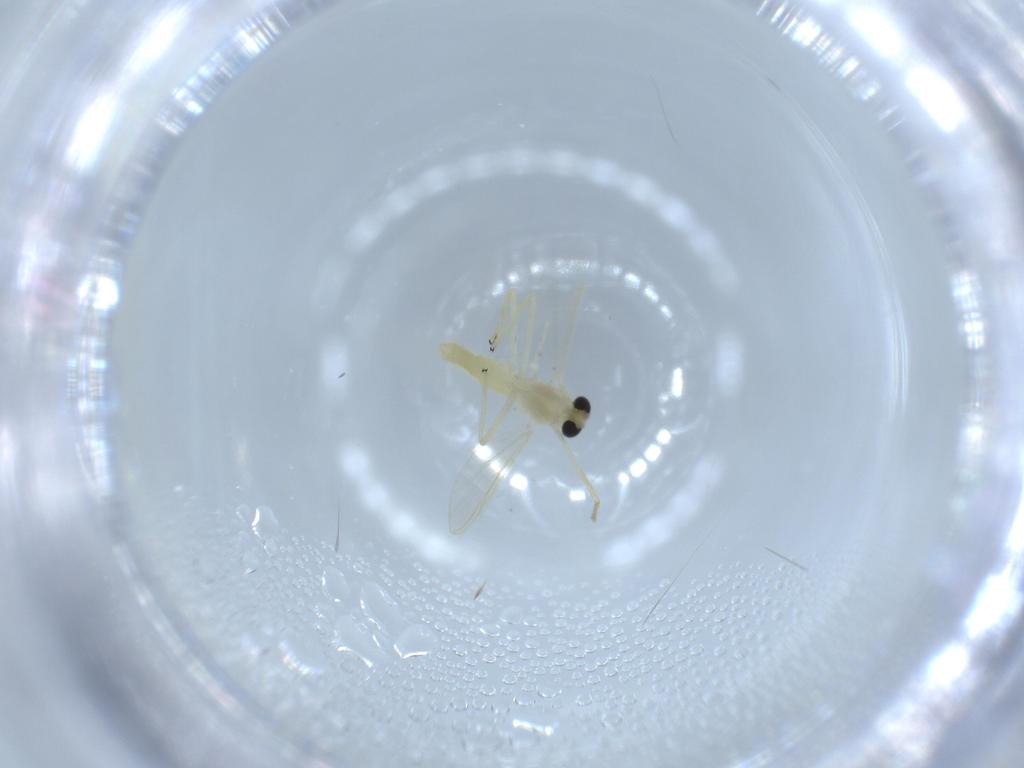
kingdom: Animalia
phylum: Arthropoda
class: Insecta
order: Diptera
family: Chironomidae
